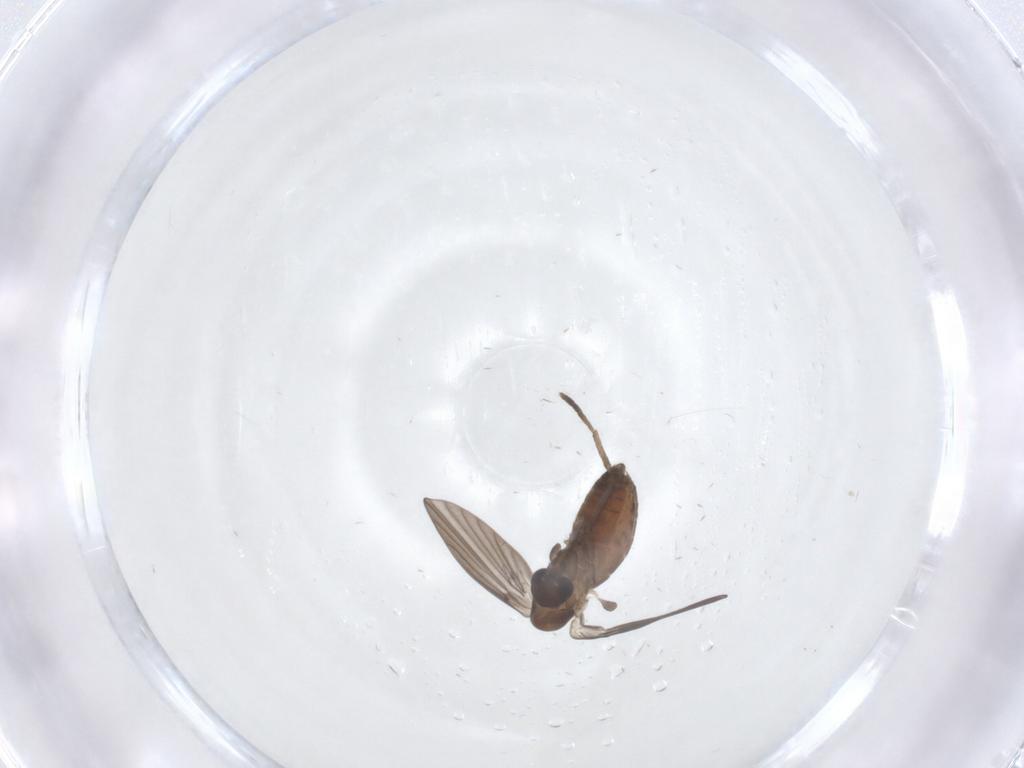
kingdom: Animalia
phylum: Arthropoda
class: Insecta
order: Diptera
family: Psychodidae
